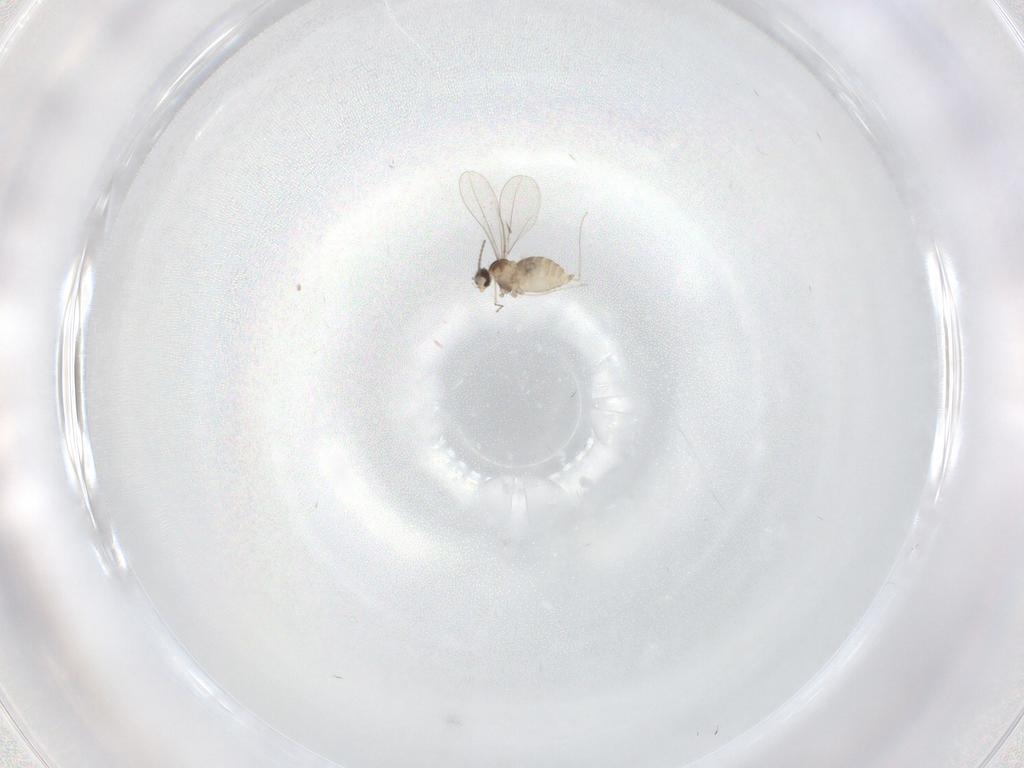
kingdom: Animalia
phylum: Arthropoda
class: Insecta
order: Diptera
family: Cecidomyiidae
